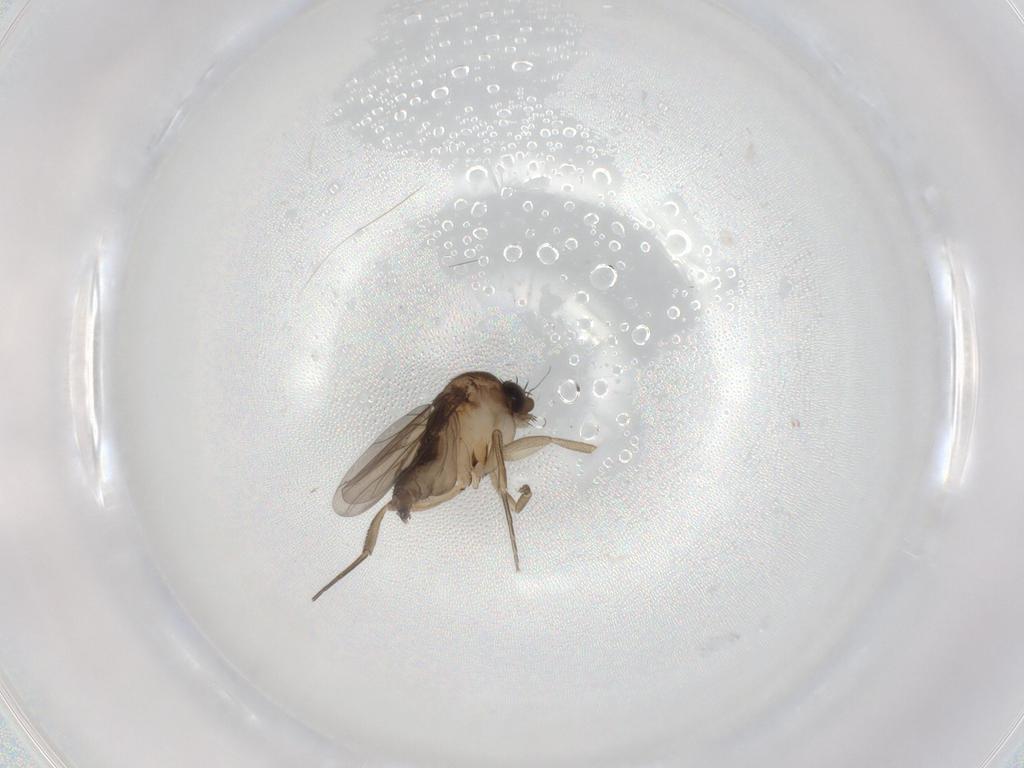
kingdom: Animalia
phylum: Arthropoda
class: Insecta
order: Diptera
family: Phoridae
